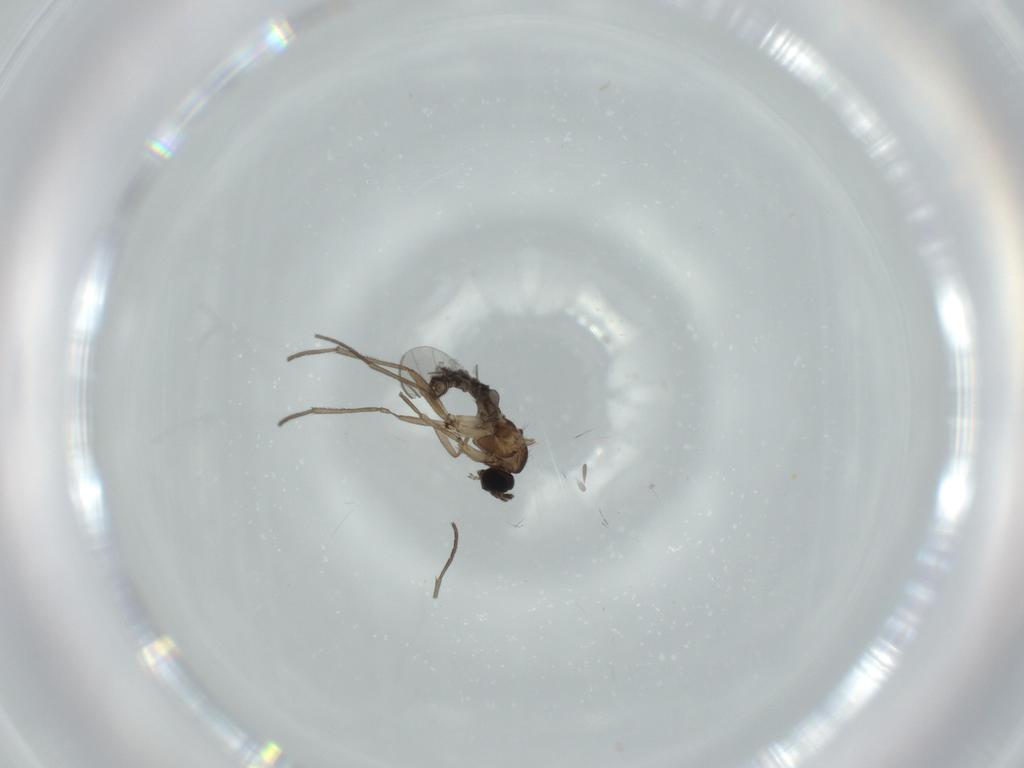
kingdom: Animalia
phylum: Arthropoda
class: Insecta
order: Diptera
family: Sciaridae
